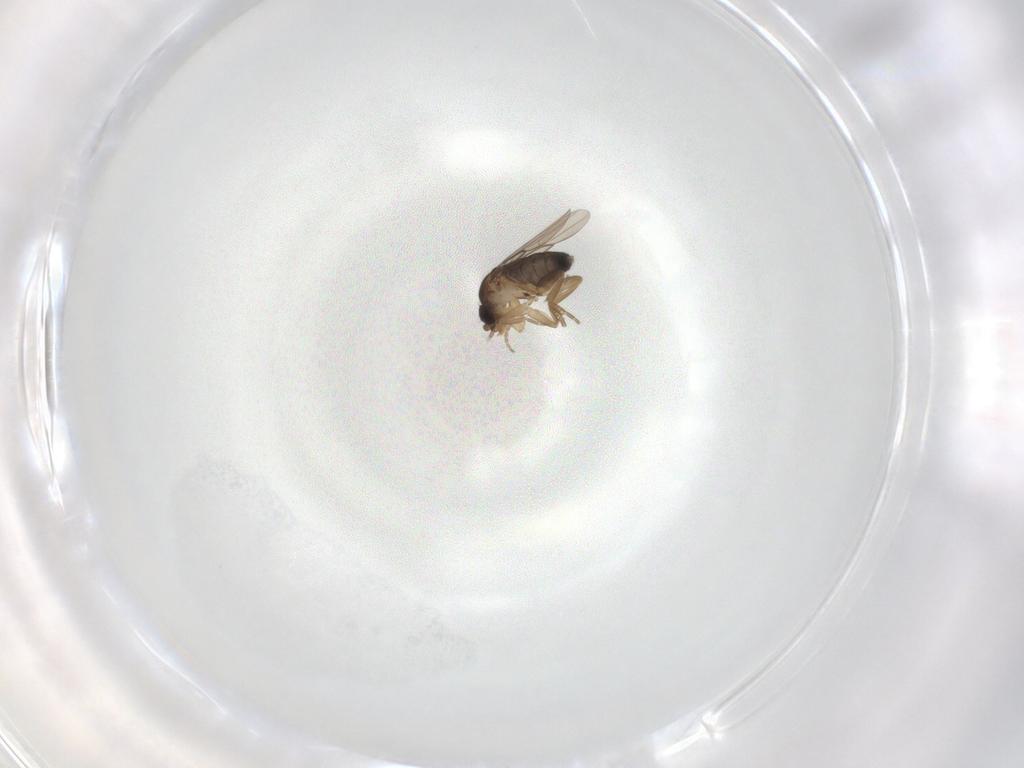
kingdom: Animalia
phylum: Arthropoda
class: Insecta
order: Diptera
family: Phoridae
